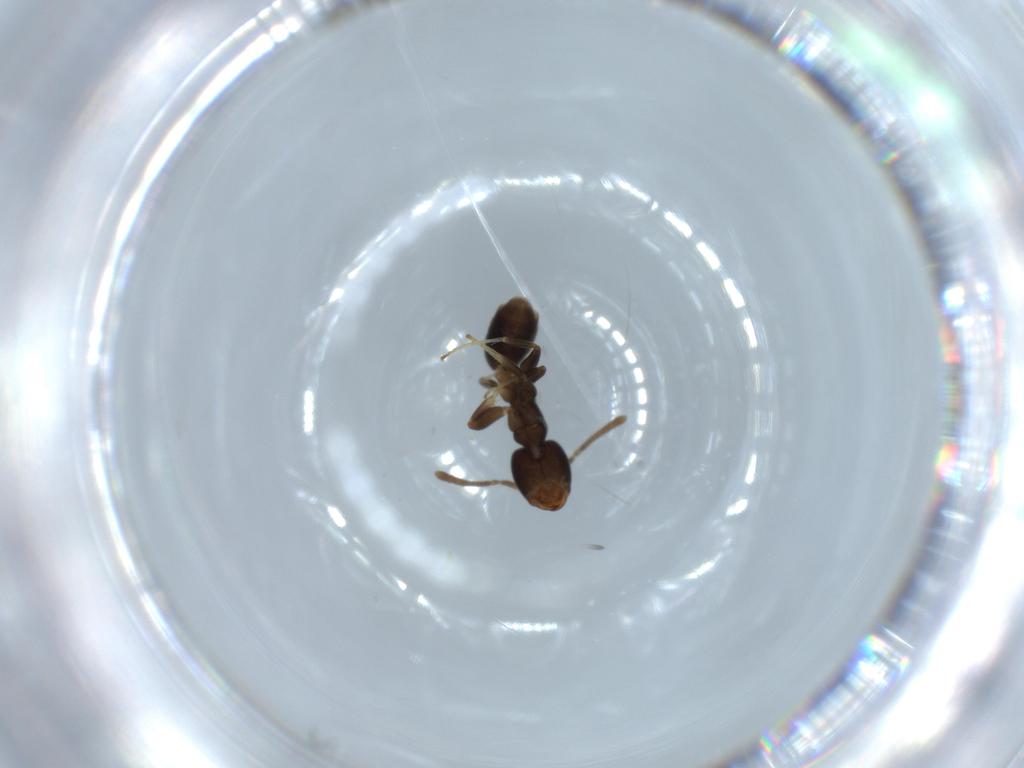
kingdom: Animalia
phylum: Arthropoda
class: Insecta
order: Hymenoptera
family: Formicidae
